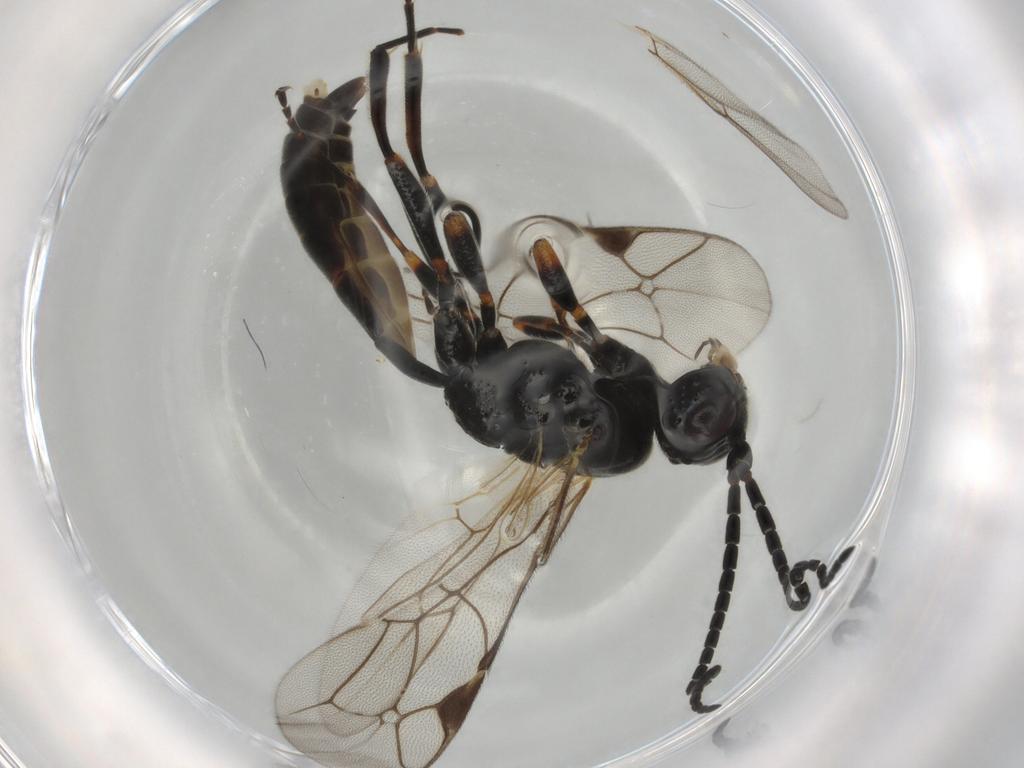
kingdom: Animalia
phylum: Arthropoda
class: Insecta
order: Hymenoptera
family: Ichneumonidae
